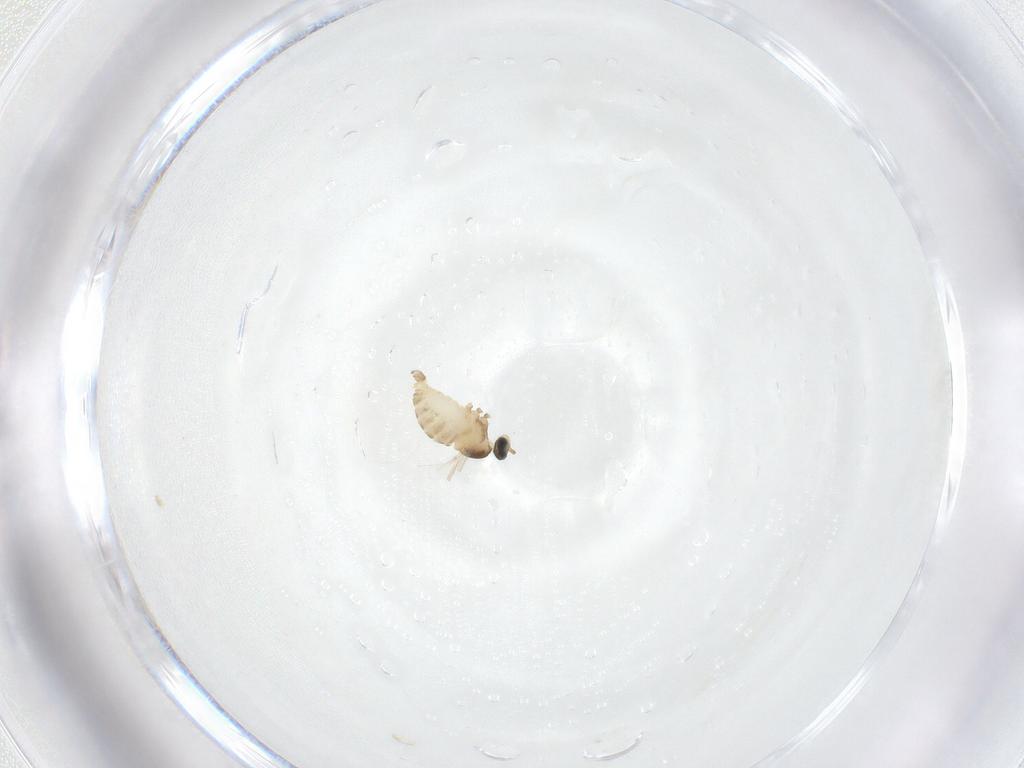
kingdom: Animalia
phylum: Arthropoda
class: Insecta
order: Diptera
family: Cecidomyiidae
